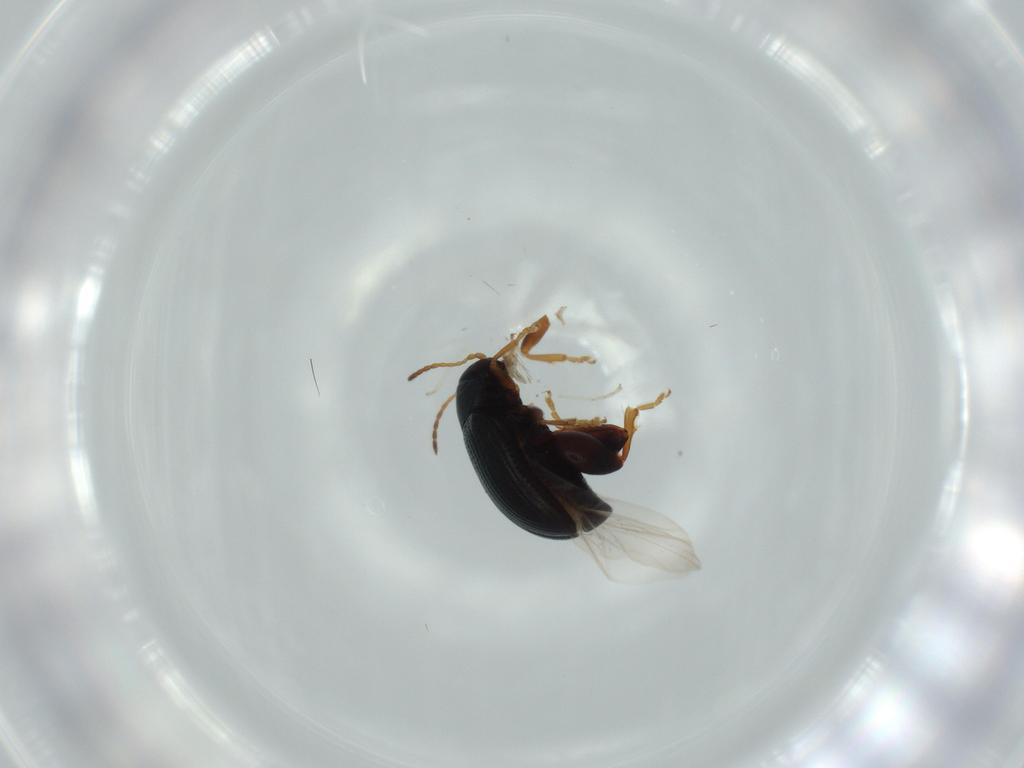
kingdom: Animalia
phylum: Arthropoda
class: Insecta
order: Coleoptera
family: Chrysomelidae
